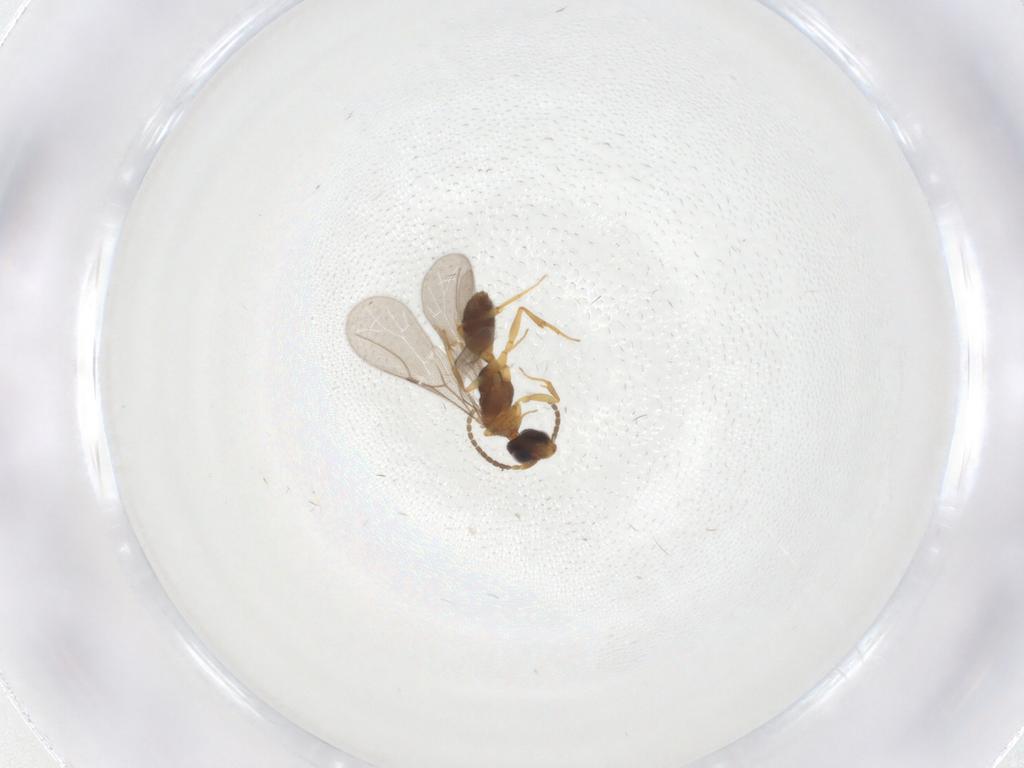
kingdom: Animalia
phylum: Arthropoda
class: Insecta
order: Hymenoptera
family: Bethylidae
